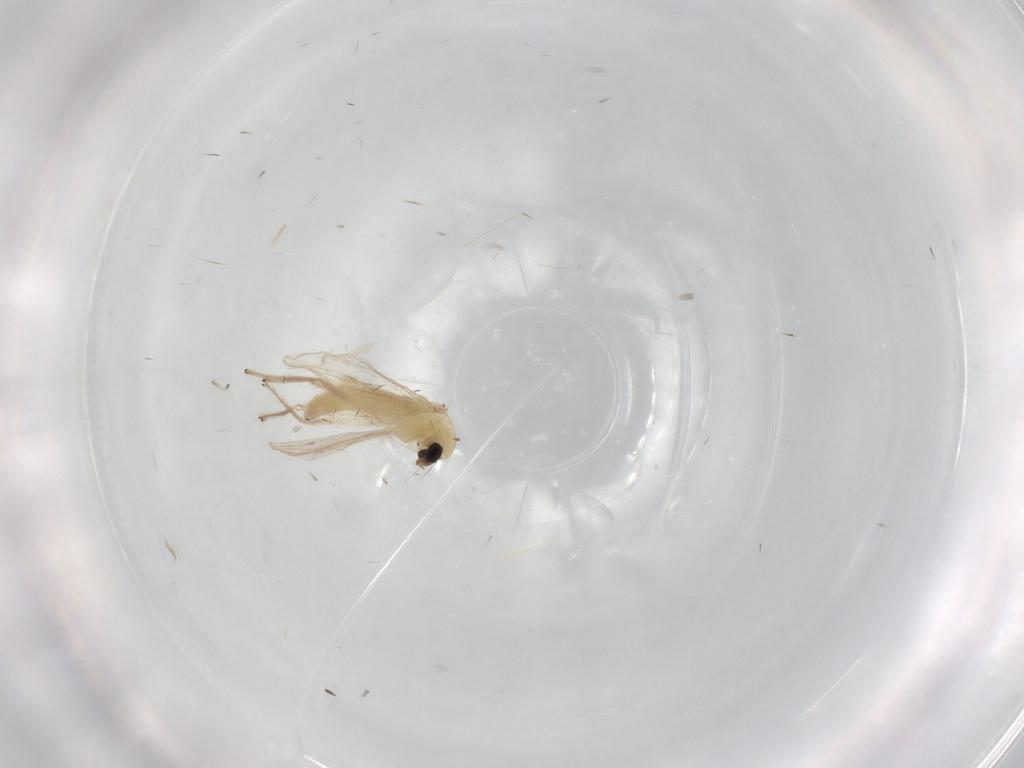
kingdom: Animalia
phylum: Arthropoda
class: Insecta
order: Diptera
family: Chironomidae
